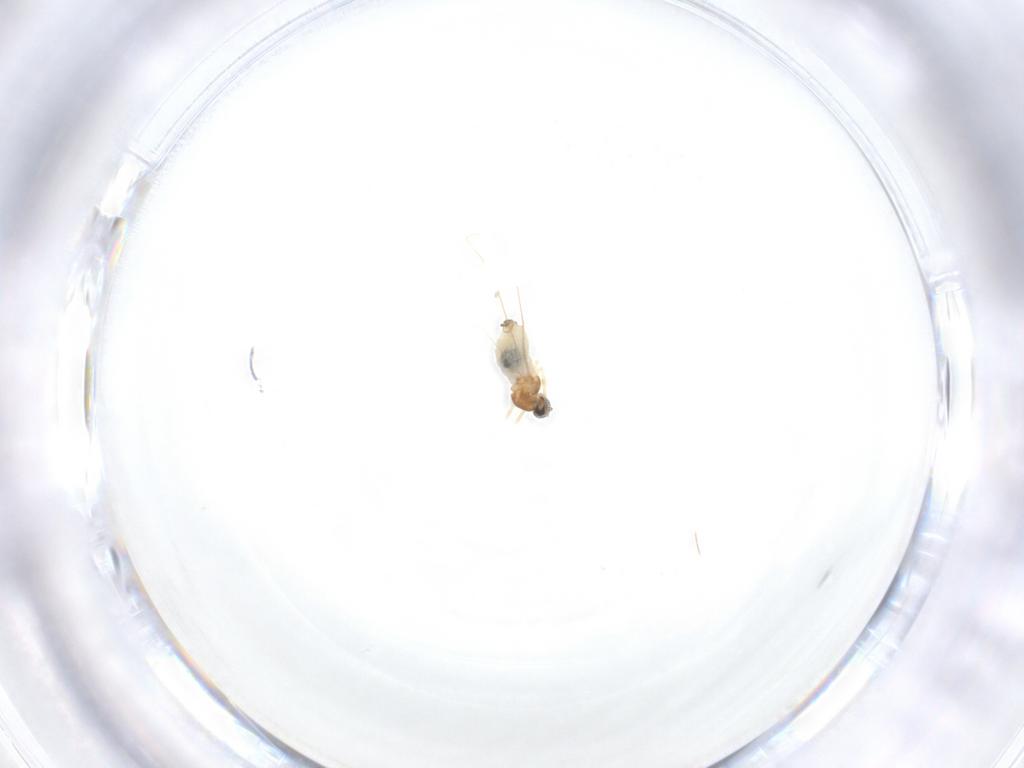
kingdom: Animalia
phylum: Arthropoda
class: Insecta
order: Diptera
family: Cecidomyiidae
